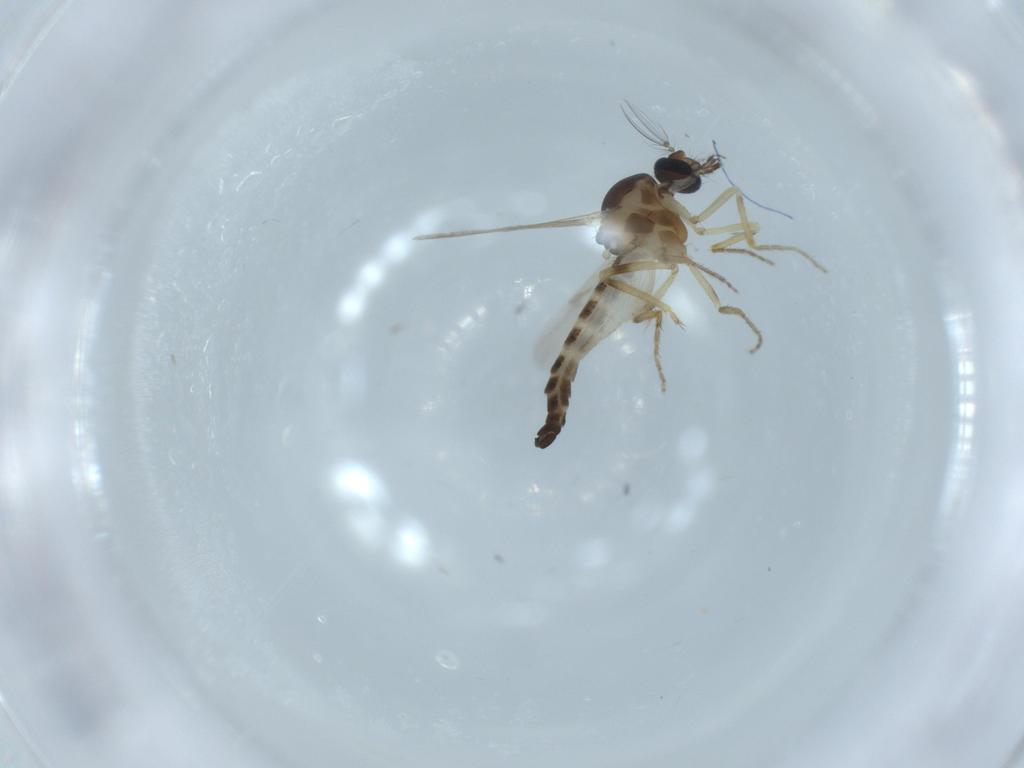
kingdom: Animalia
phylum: Arthropoda
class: Insecta
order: Diptera
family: Ceratopogonidae
